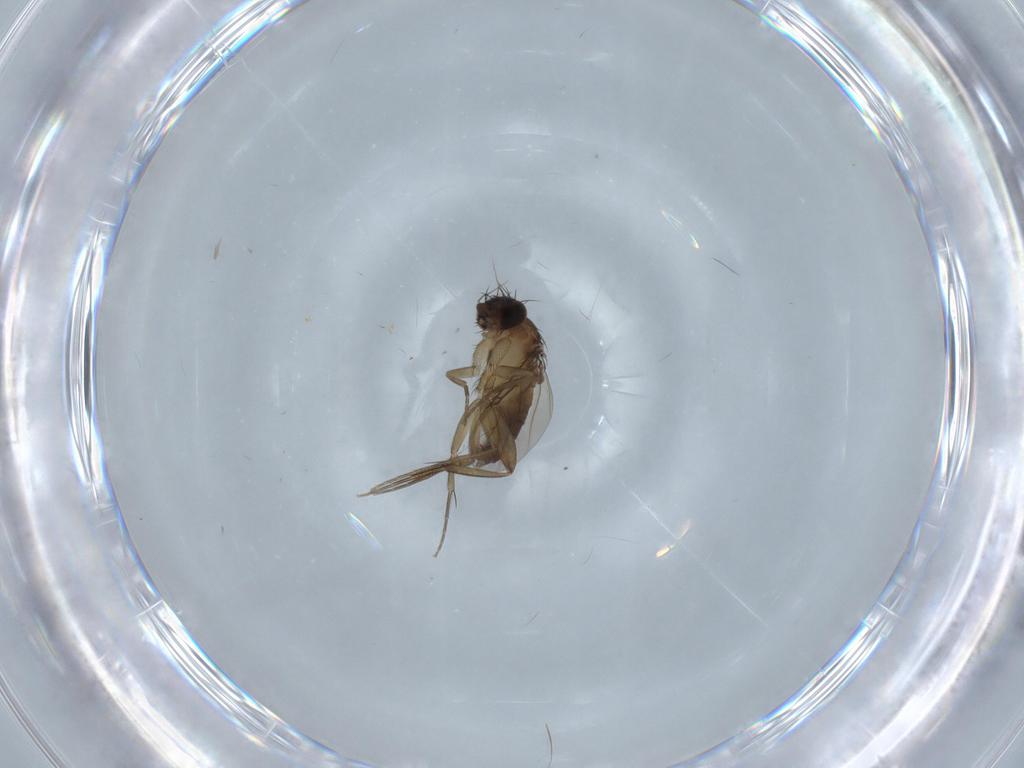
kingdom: Animalia
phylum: Arthropoda
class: Insecta
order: Diptera
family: Phoridae
